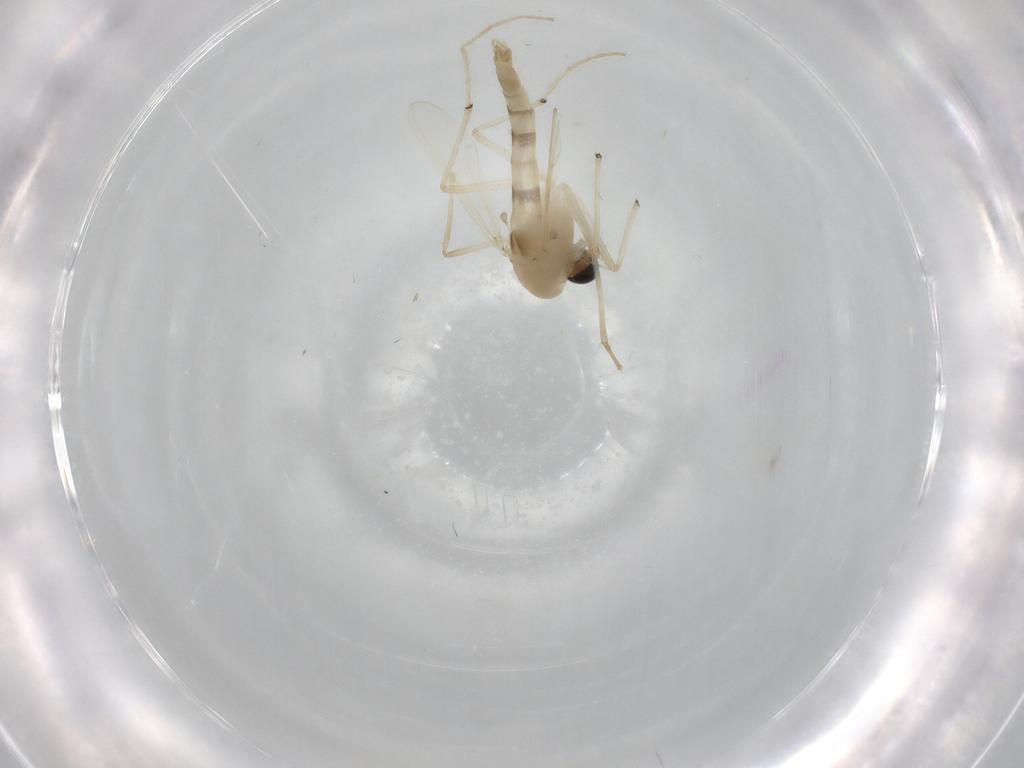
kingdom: Animalia
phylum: Arthropoda
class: Insecta
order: Diptera
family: Chironomidae
